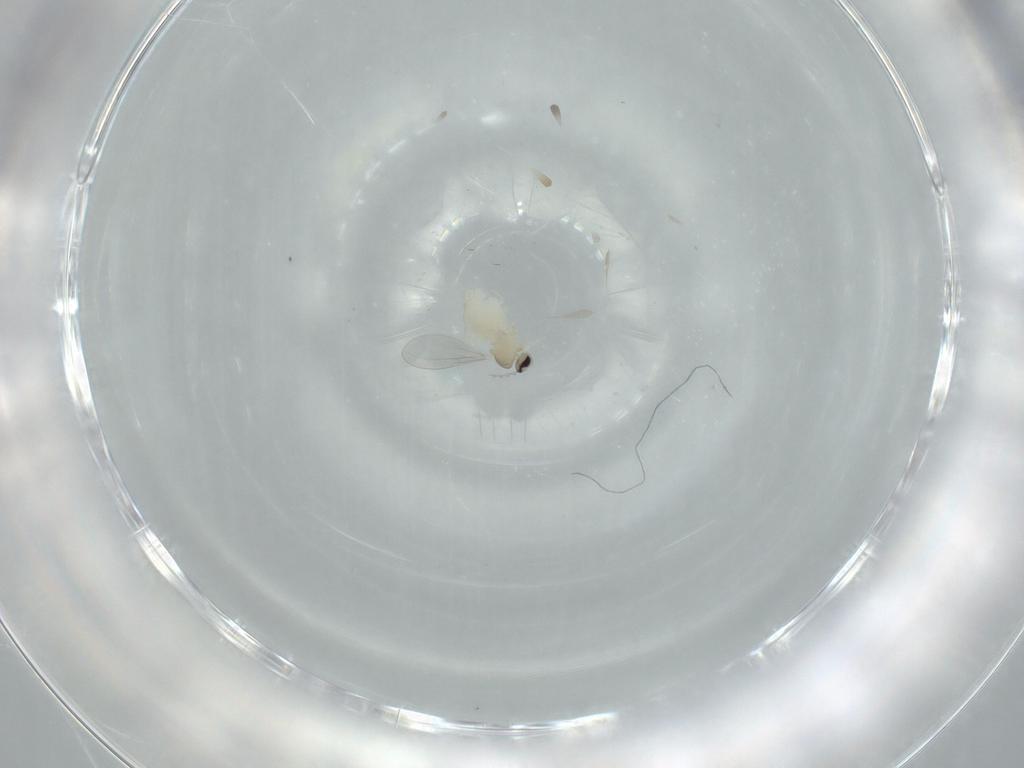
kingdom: Animalia
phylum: Arthropoda
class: Insecta
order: Diptera
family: Cecidomyiidae
